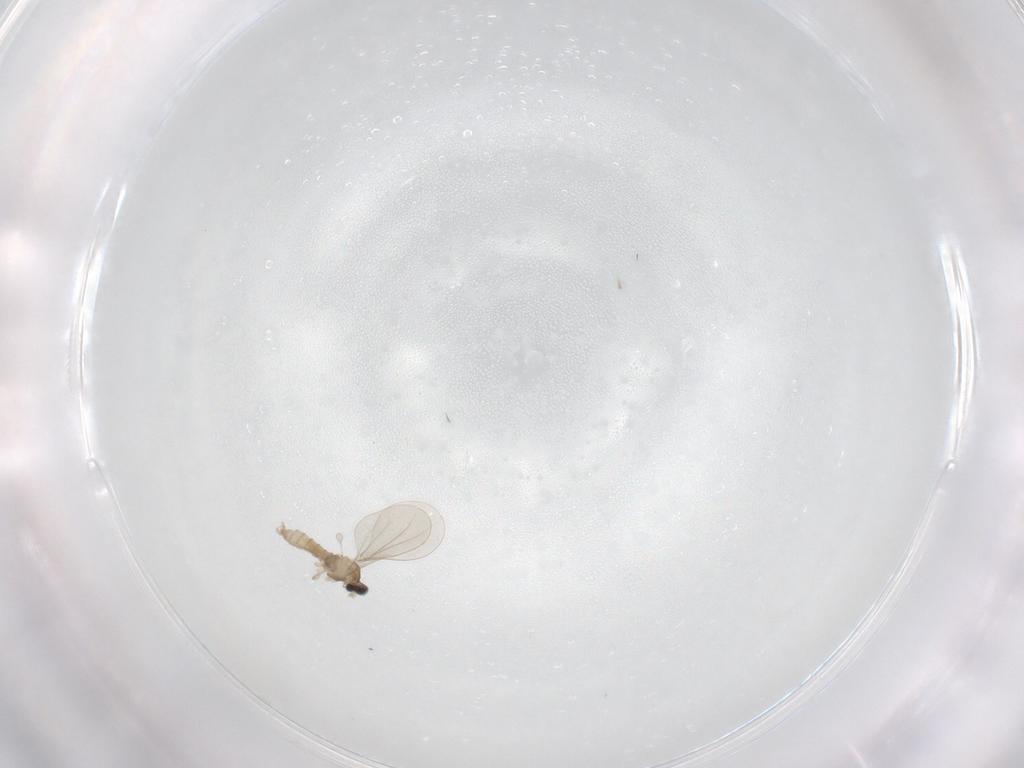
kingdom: Animalia
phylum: Arthropoda
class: Insecta
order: Diptera
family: Cecidomyiidae
